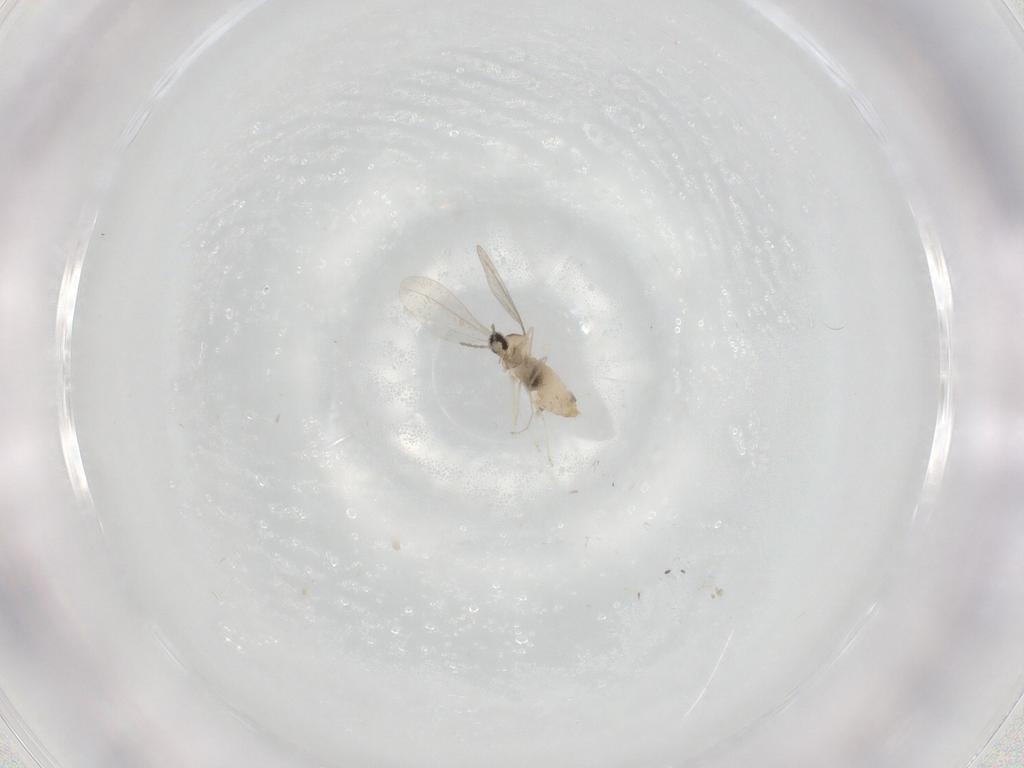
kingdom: Animalia
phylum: Arthropoda
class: Insecta
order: Diptera
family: Cecidomyiidae
